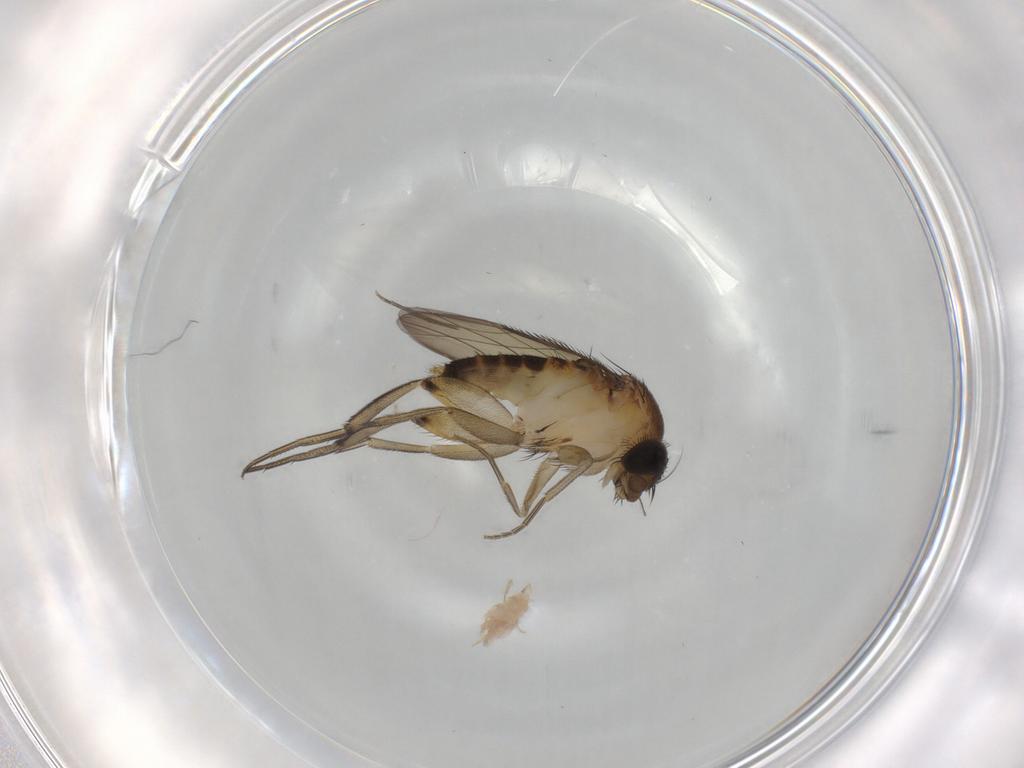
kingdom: Animalia
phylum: Arthropoda
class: Insecta
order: Diptera
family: Phoridae
